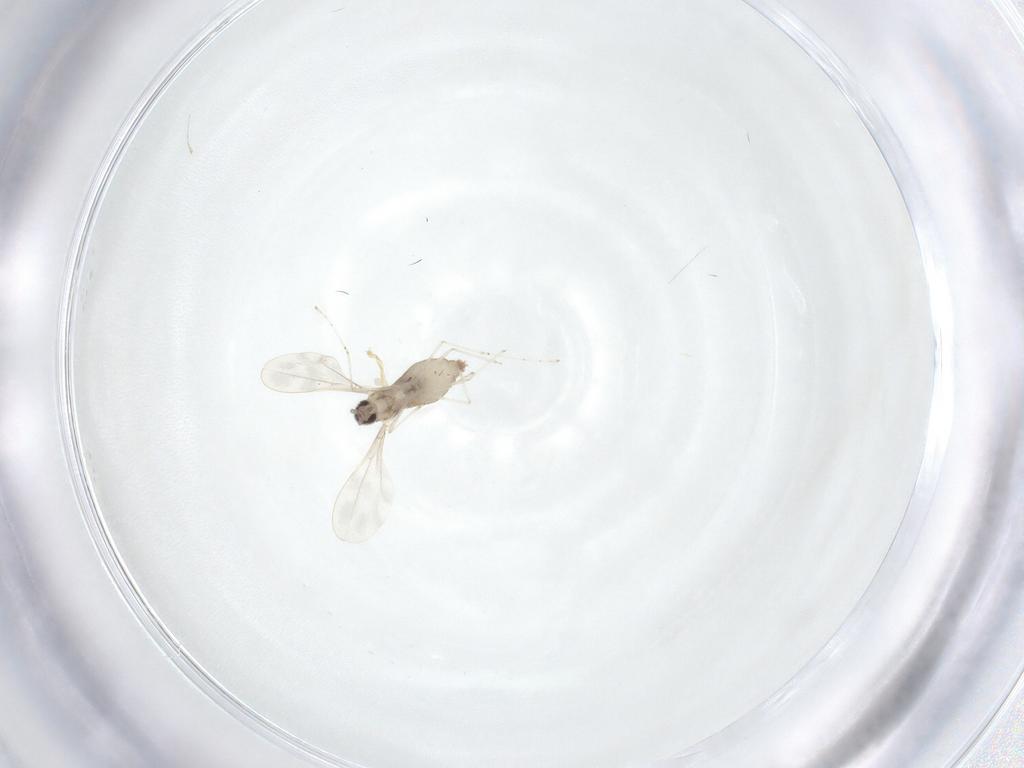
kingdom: Animalia
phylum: Arthropoda
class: Insecta
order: Diptera
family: Cecidomyiidae
